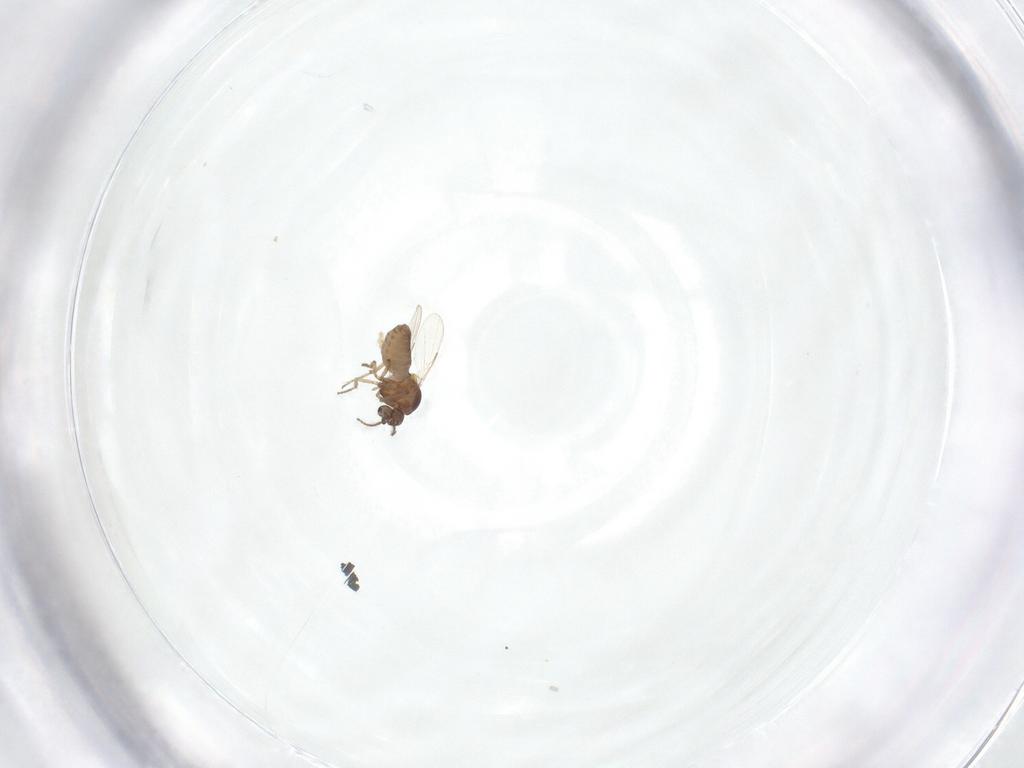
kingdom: Animalia
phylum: Arthropoda
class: Insecta
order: Diptera
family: Ceratopogonidae
